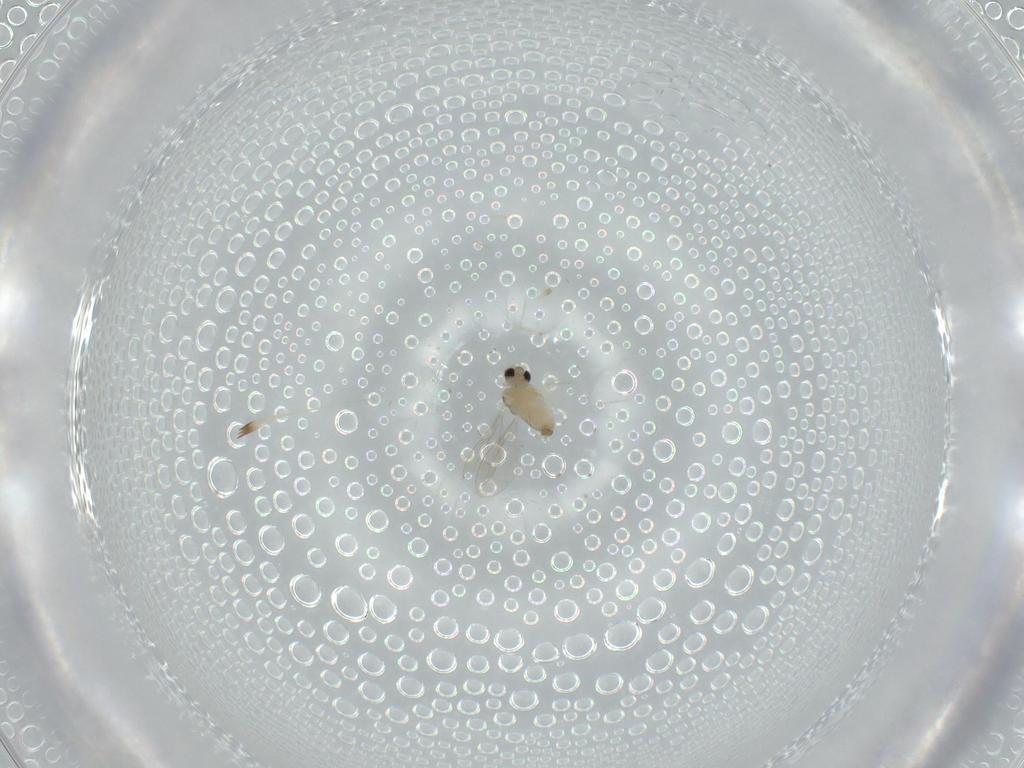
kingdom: Animalia
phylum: Arthropoda
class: Insecta
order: Diptera
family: Cecidomyiidae
